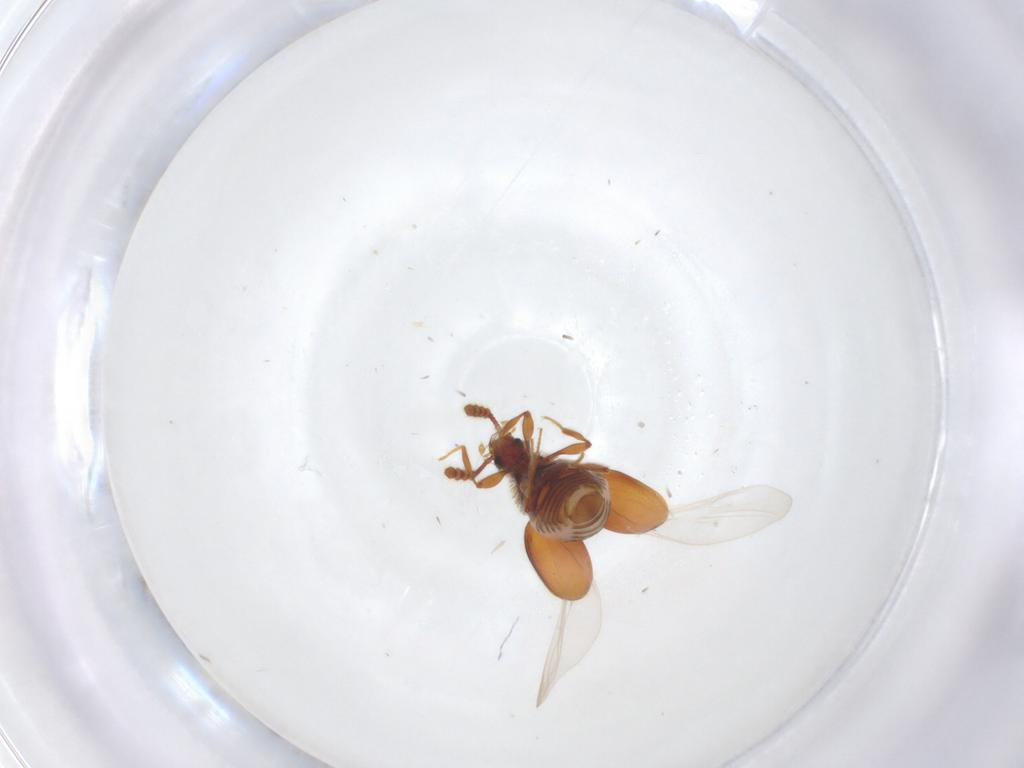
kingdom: Animalia
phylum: Arthropoda
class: Insecta
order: Coleoptera
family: Staphylinidae
